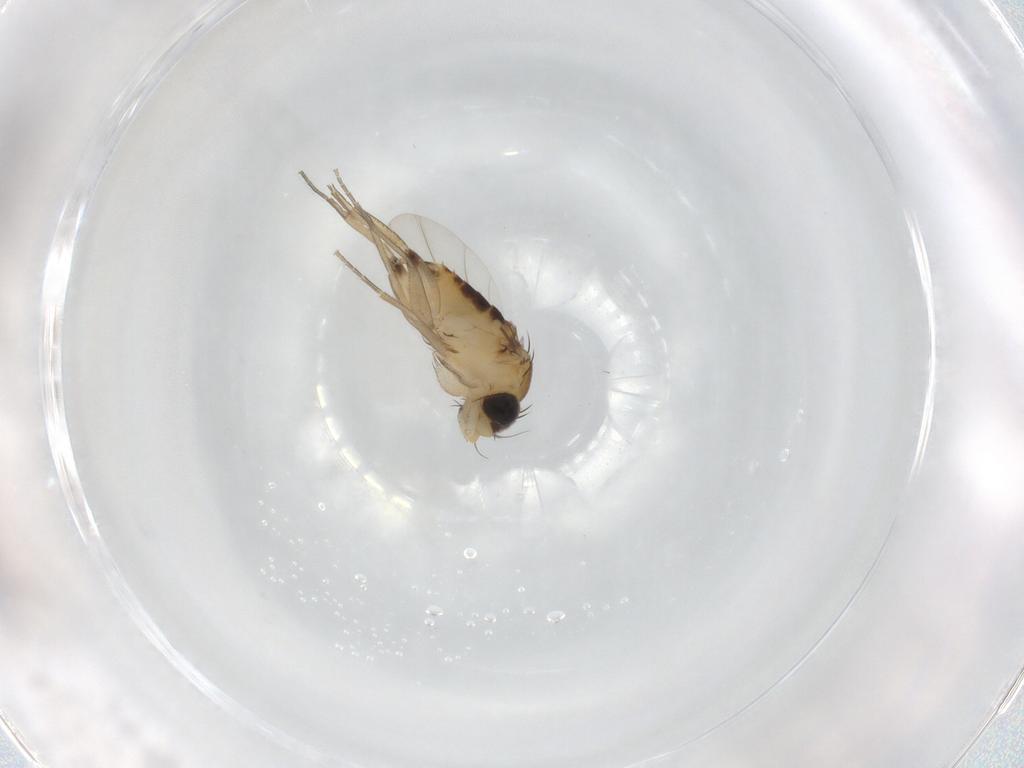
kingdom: Animalia
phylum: Arthropoda
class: Insecta
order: Diptera
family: Phoridae
